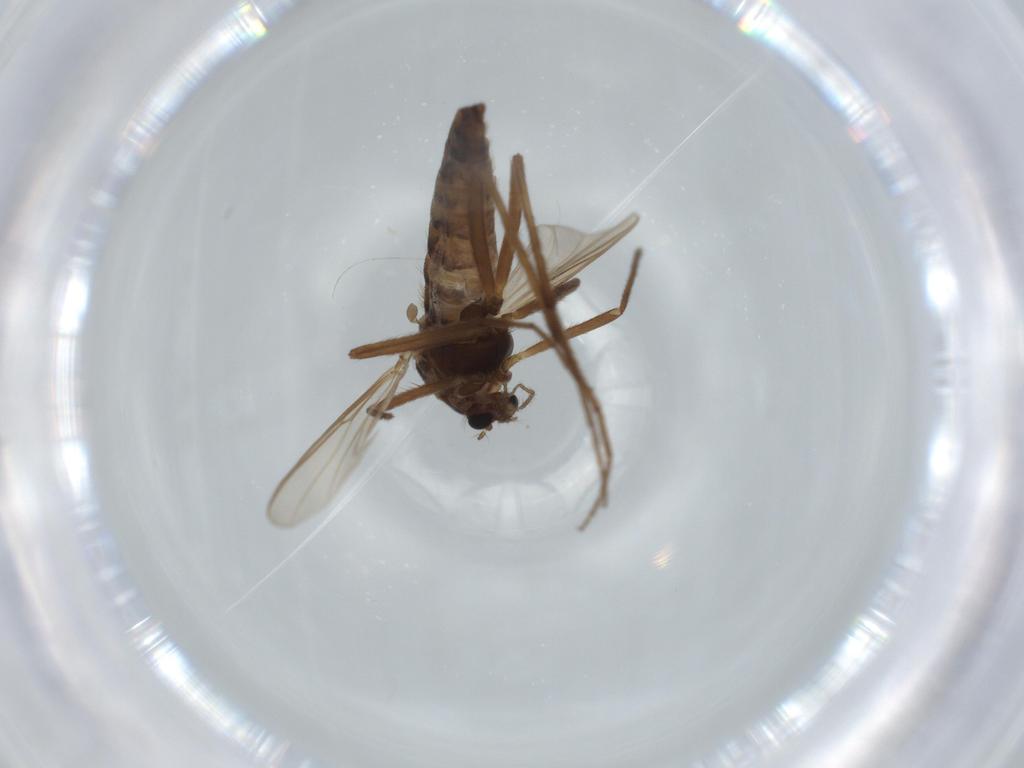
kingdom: Animalia
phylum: Arthropoda
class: Insecta
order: Diptera
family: Chironomidae
